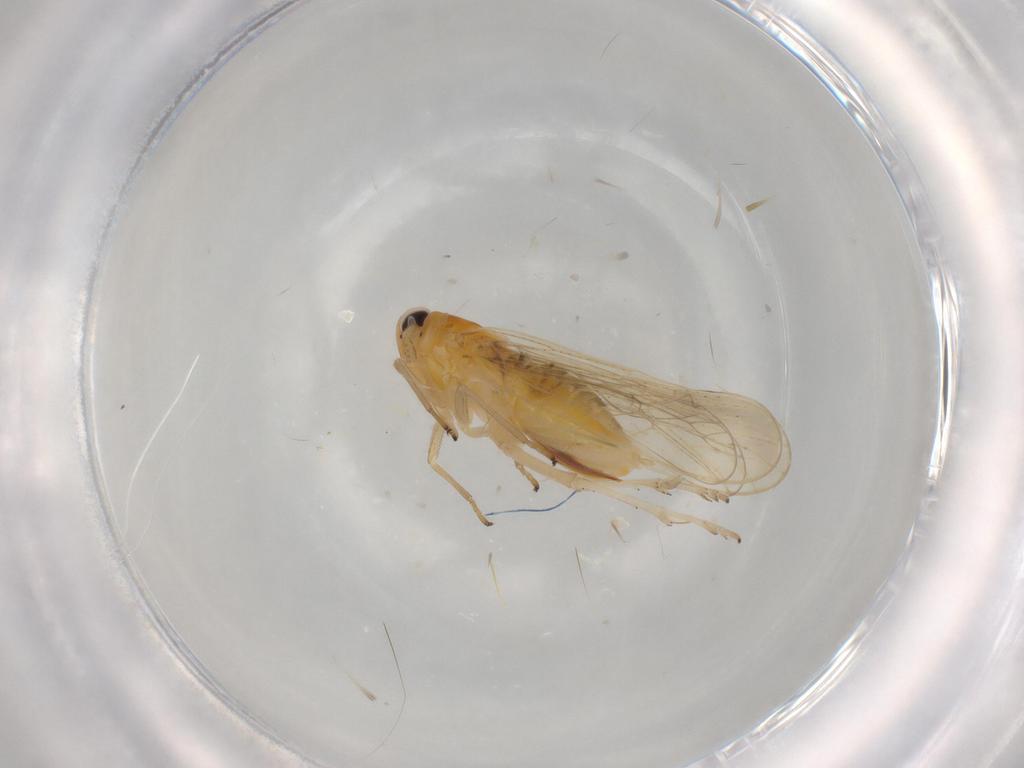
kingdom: Animalia
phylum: Arthropoda
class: Insecta
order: Hemiptera
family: Delphacidae
